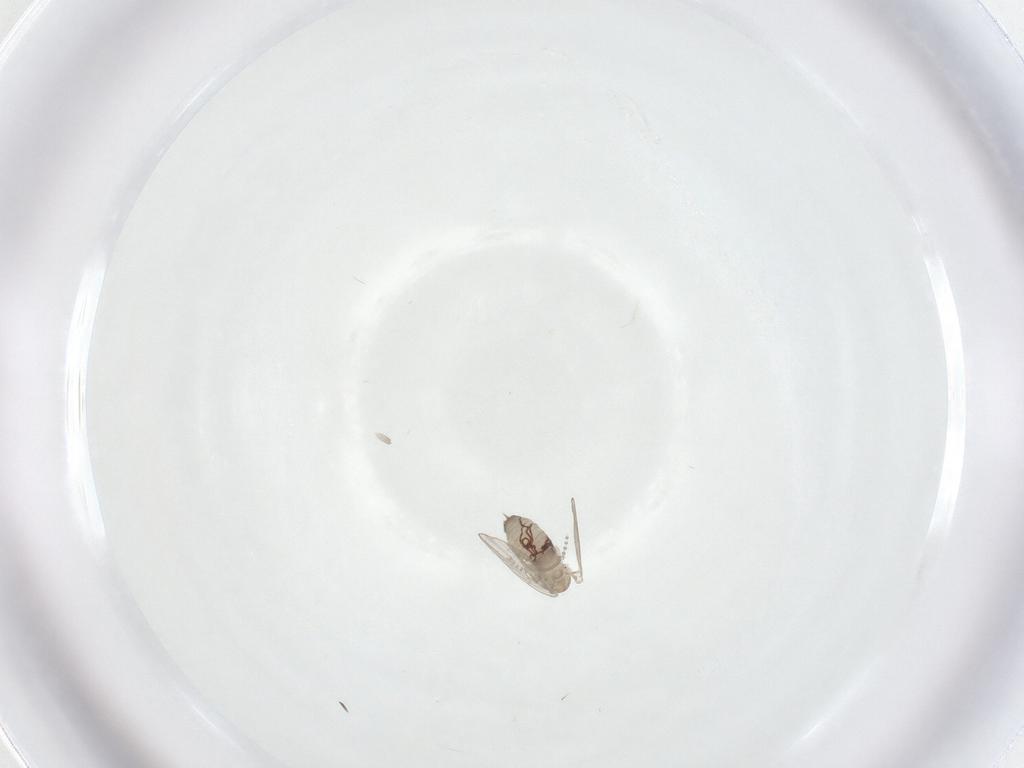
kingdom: Animalia
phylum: Arthropoda
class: Insecta
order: Diptera
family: Psychodidae
